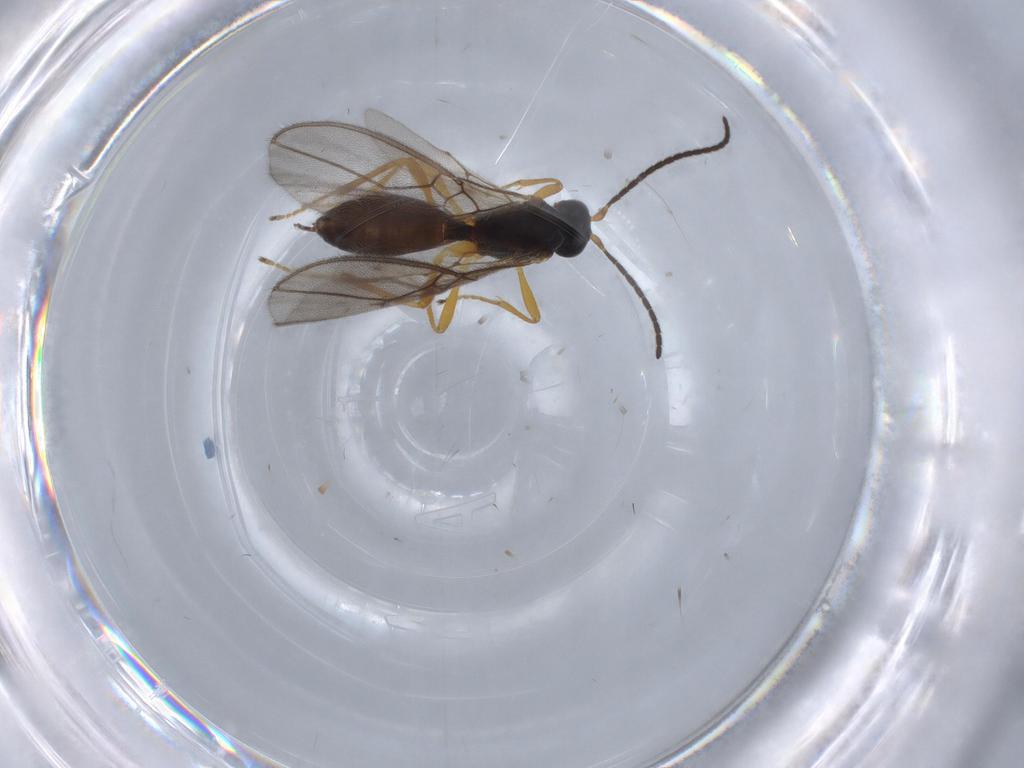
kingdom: Animalia
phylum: Arthropoda
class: Insecta
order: Hymenoptera
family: Braconidae
